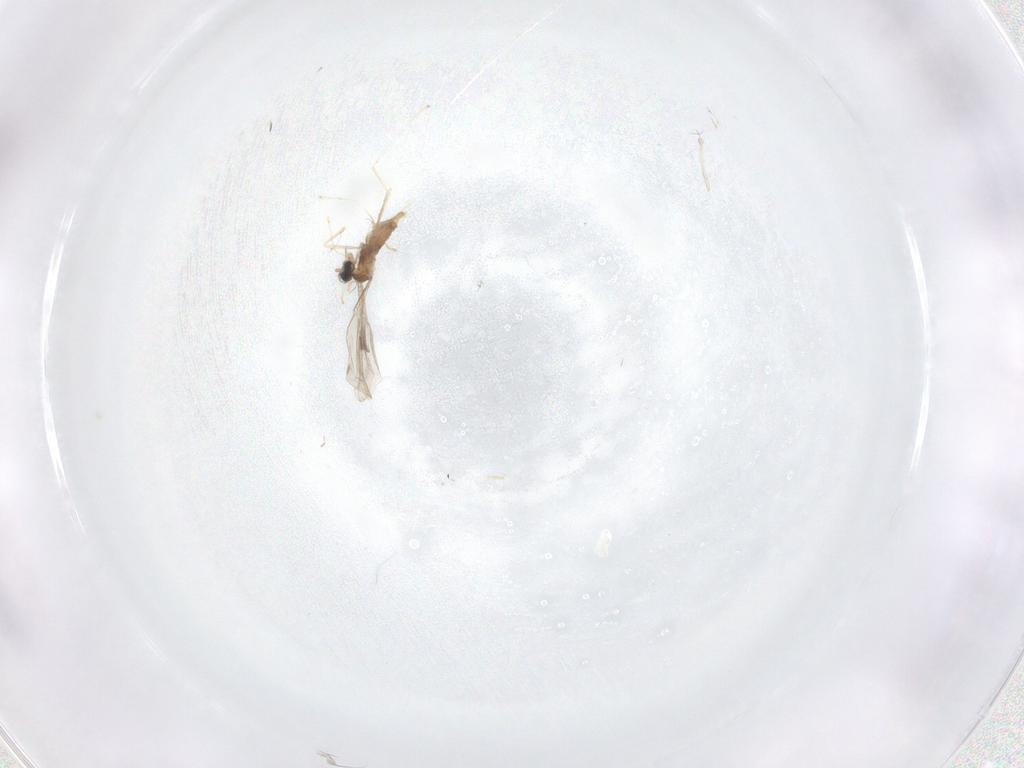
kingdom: Animalia
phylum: Arthropoda
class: Insecta
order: Diptera
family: Cecidomyiidae
